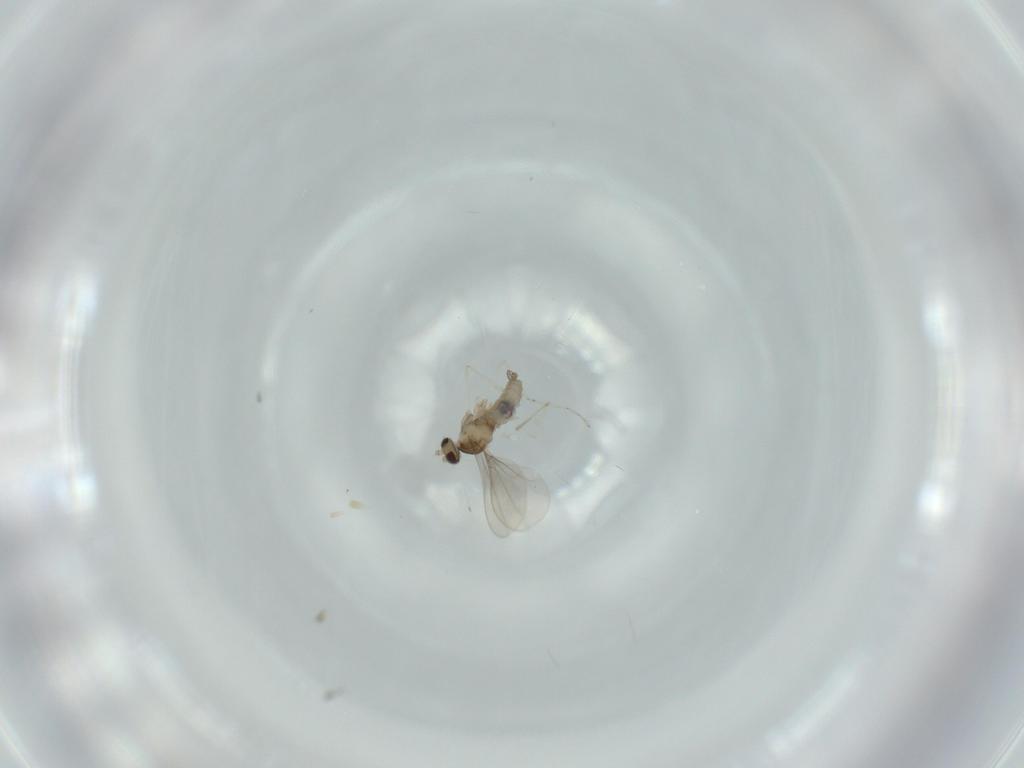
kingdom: Animalia
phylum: Arthropoda
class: Insecta
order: Diptera
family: Cecidomyiidae
